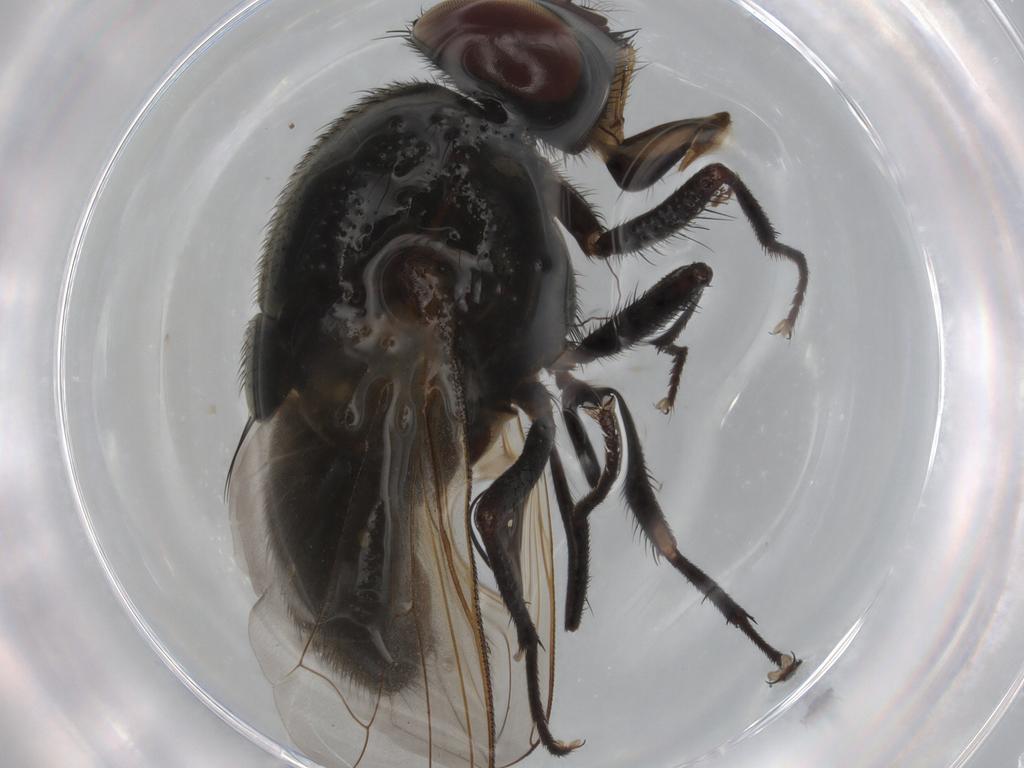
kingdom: Animalia
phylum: Arthropoda
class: Insecta
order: Diptera
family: Muscidae
